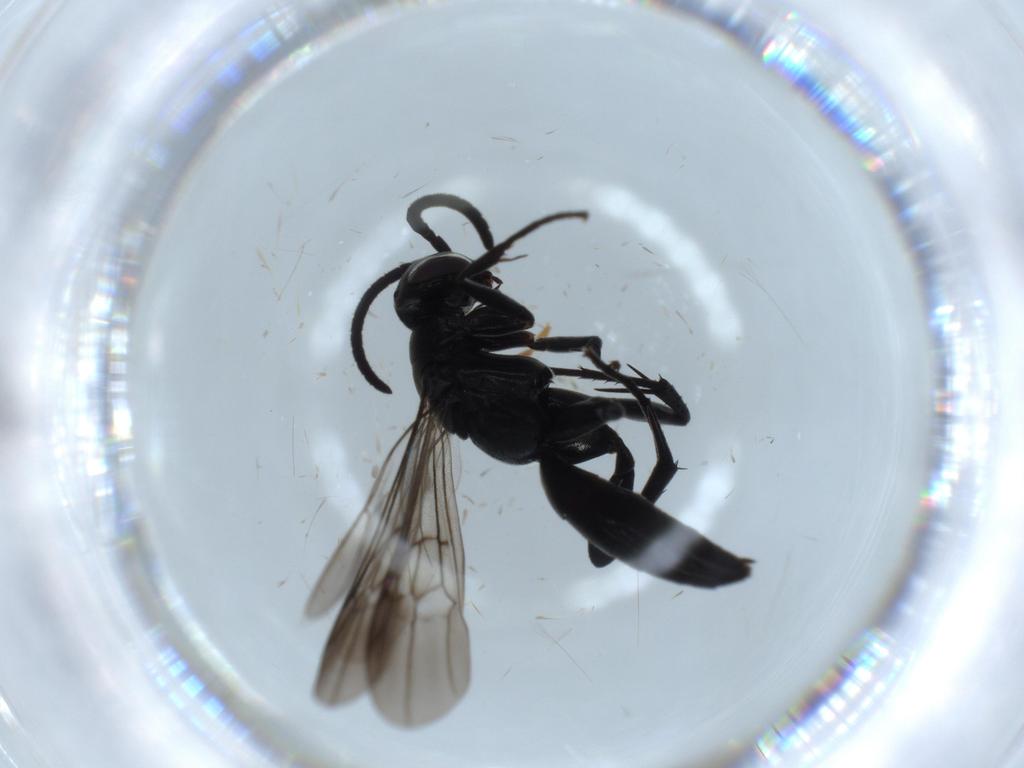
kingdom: Animalia
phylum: Arthropoda
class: Insecta
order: Hymenoptera
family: Pompilidae
